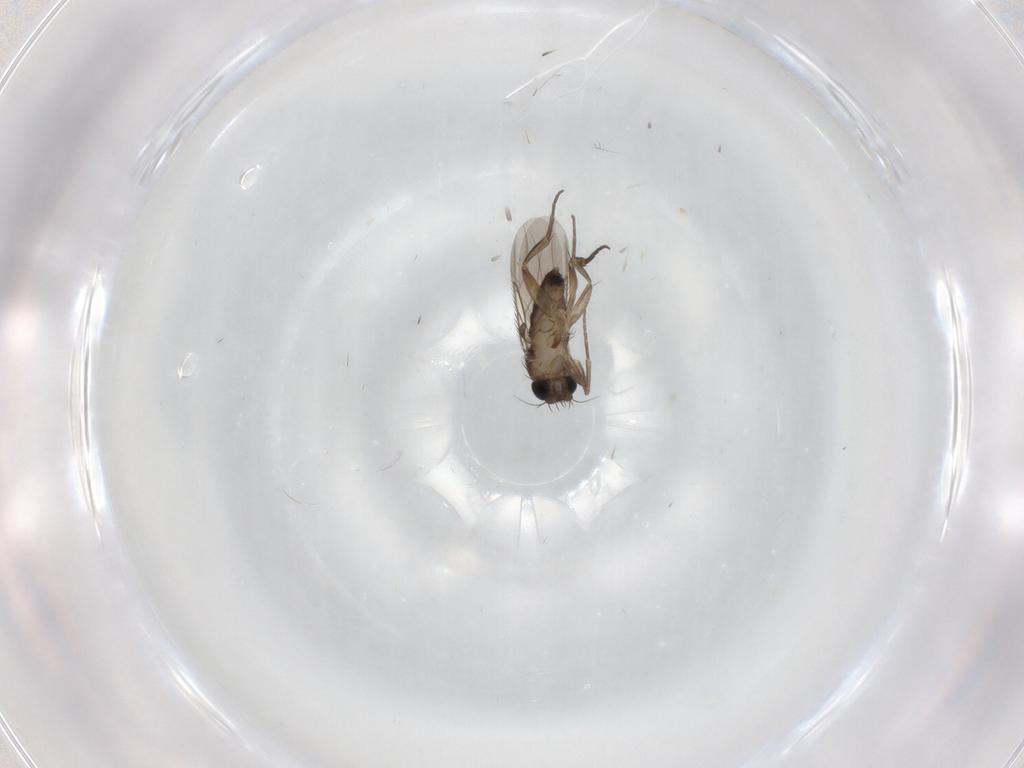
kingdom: Animalia
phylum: Arthropoda
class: Insecta
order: Diptera
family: Phoridae
